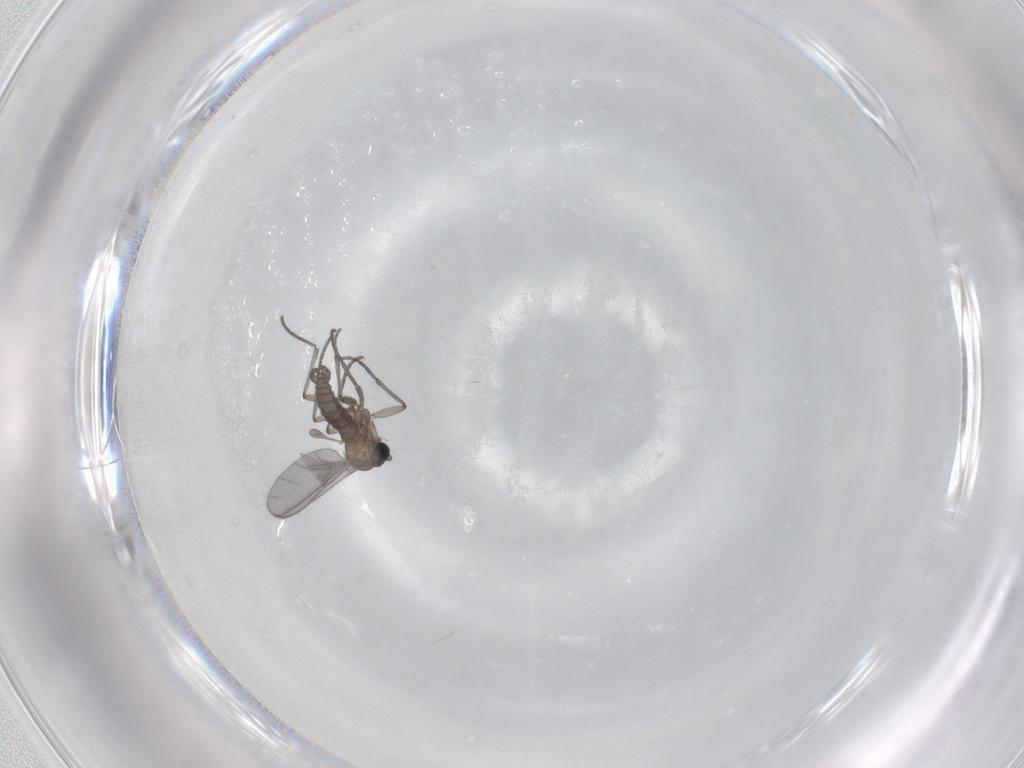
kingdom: Animalia
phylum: Arthropoda
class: Insecta
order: Diptera
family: Sciaridae
